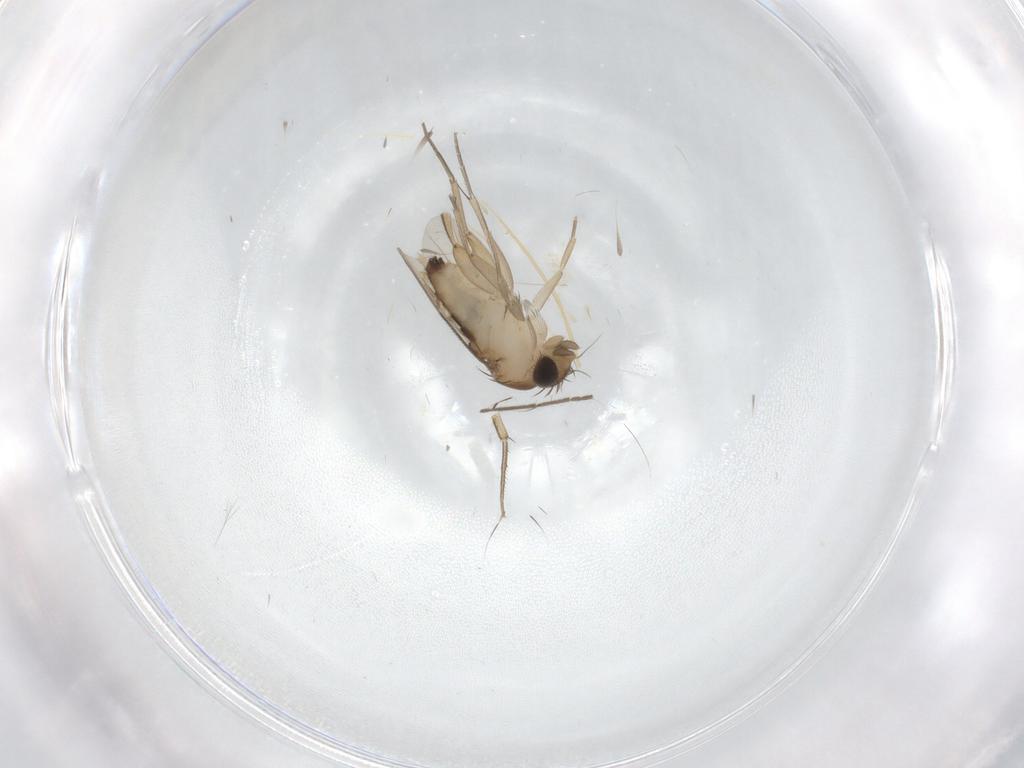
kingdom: Animalia
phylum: Arthropoda
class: Insecta
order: Diptera
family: Phoridae
